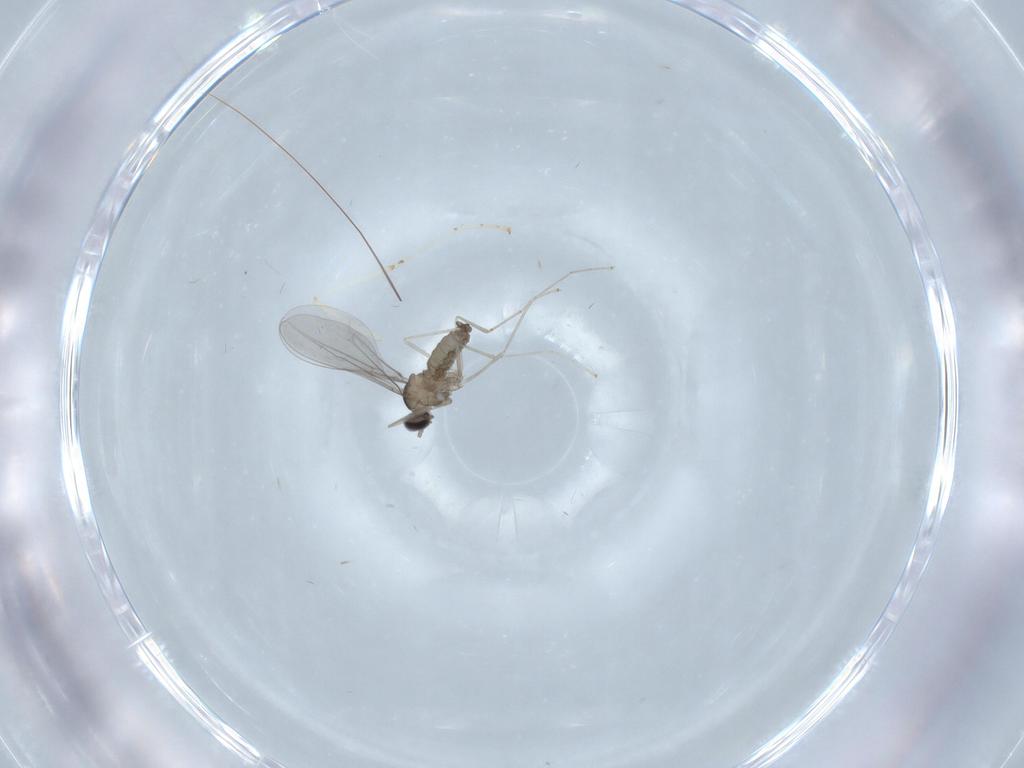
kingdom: Animalia
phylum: Arthropoda
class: Insecta
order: Diptera
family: Cecidomyiidae
